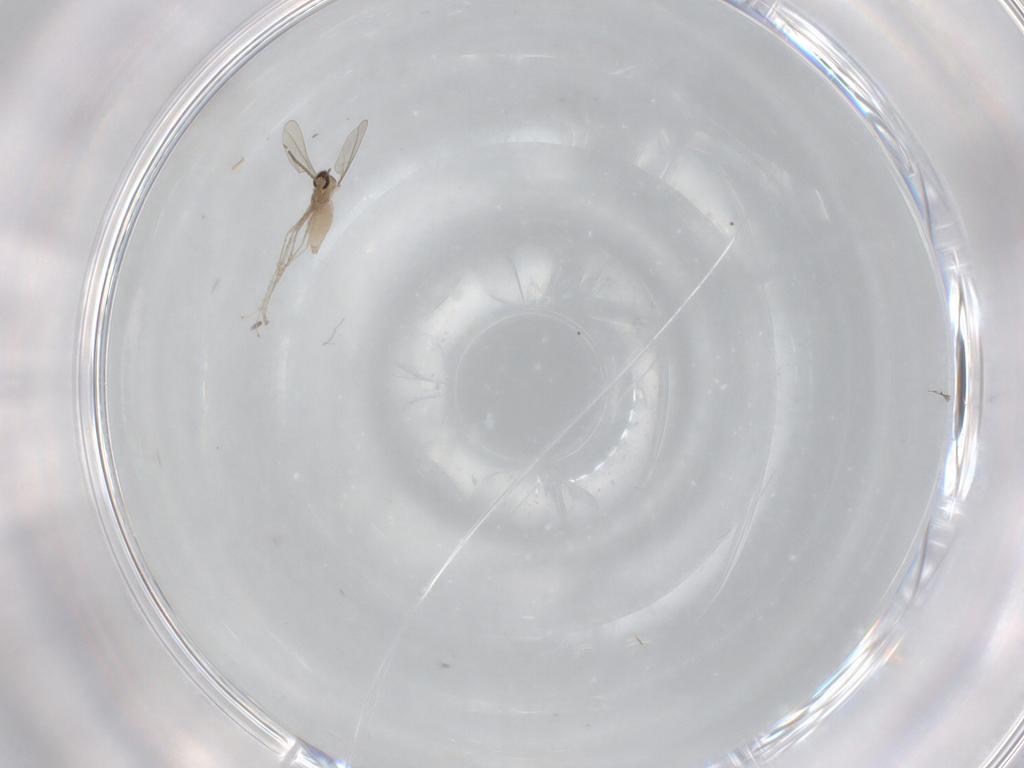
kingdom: Animalia
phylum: Arthropoda
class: Insecta
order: Diptera
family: Cecidomyiidae
